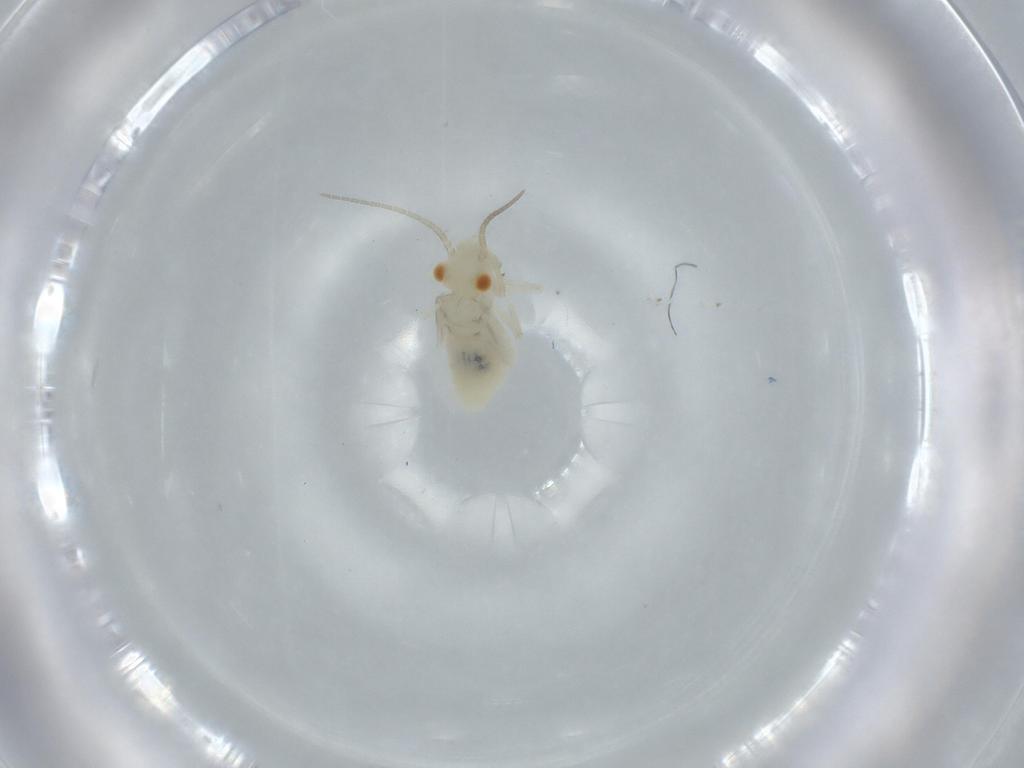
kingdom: Animalia
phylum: Arthropoda
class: Insecta
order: Psocodea
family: Caeciliusidae
